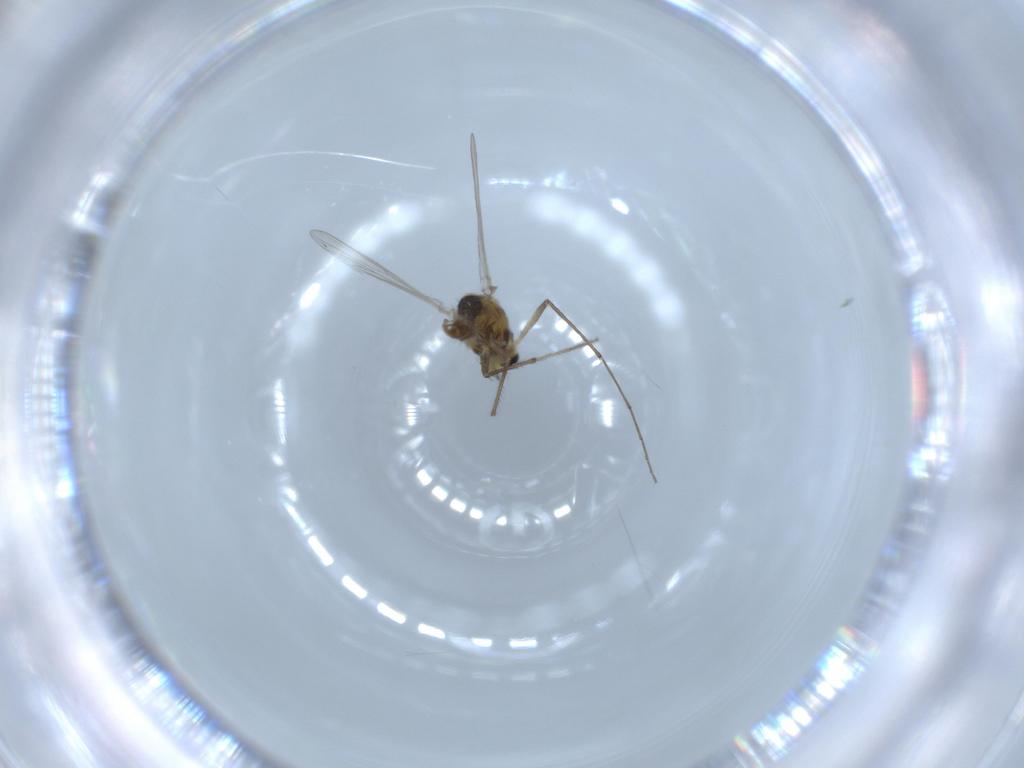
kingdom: Animalia
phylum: Arthropoda
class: Insecta
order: Diptera
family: Chironomidae
